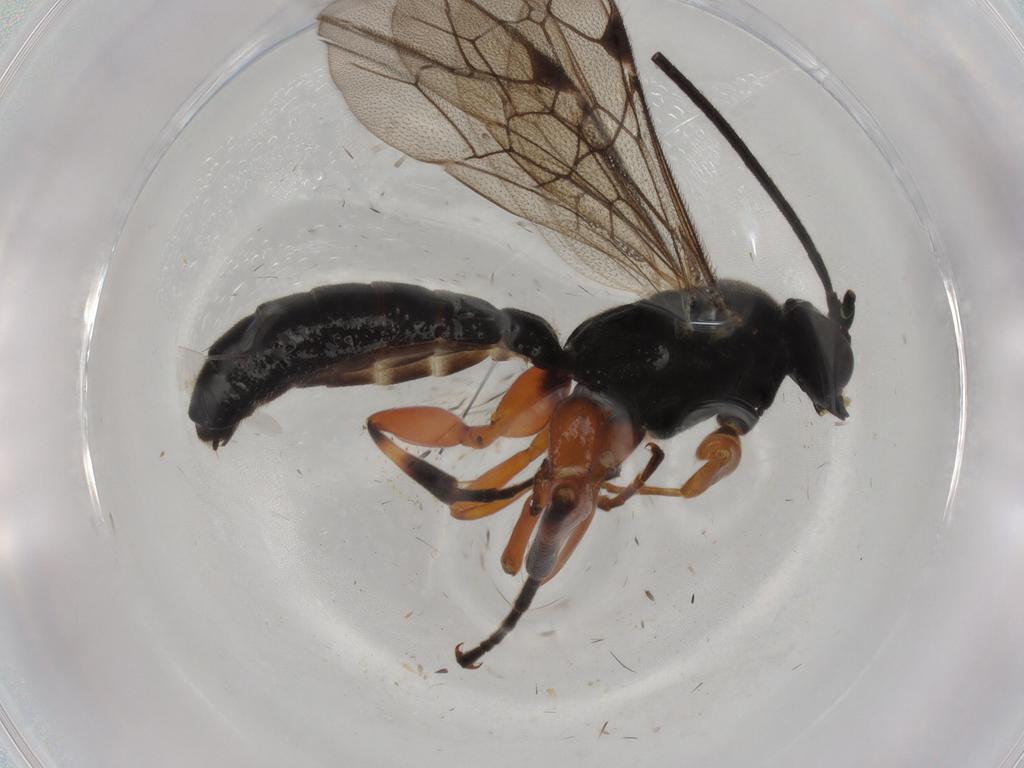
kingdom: Animalia
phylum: Arthropoda
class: Insecta
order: Hymenoptera
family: Ichneumonidae
